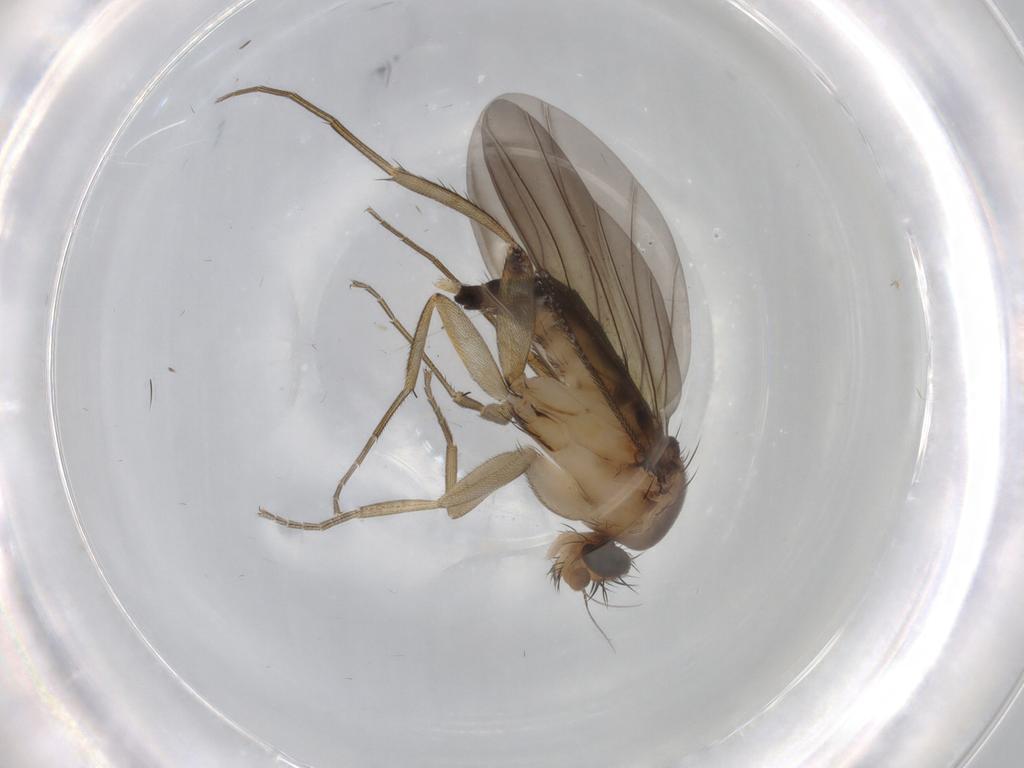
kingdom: Animalia
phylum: Arthropoda
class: Insecta
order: Diptera
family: Phoridae
